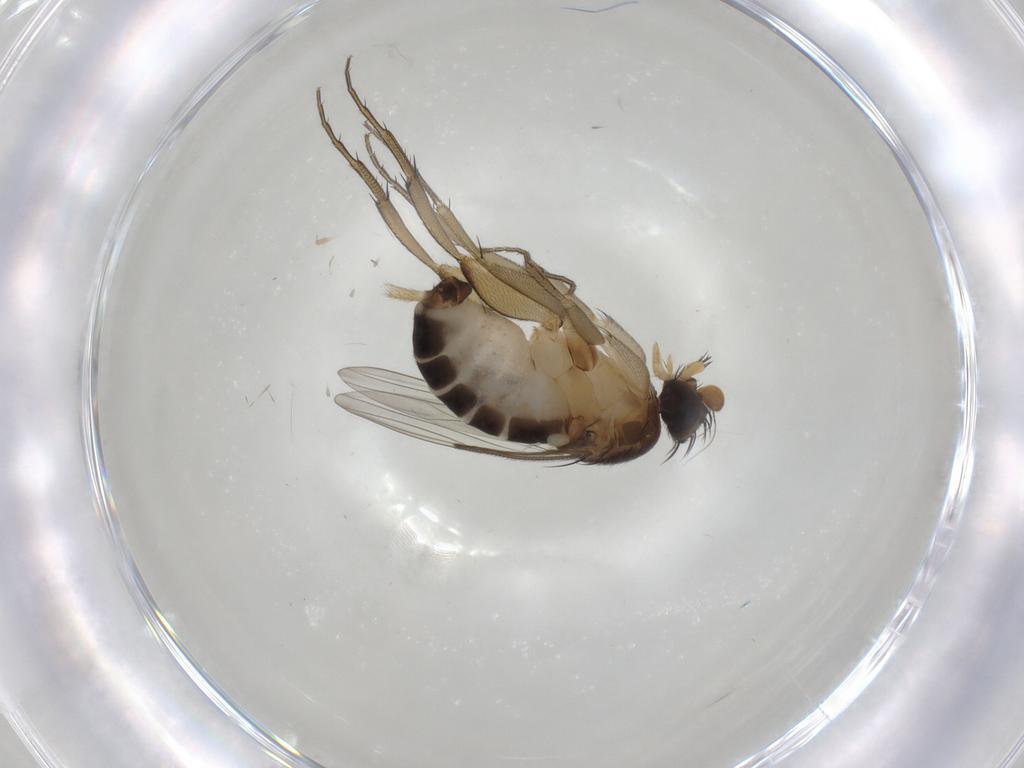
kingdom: Animalia
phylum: Arthropoda
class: Insecta
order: Diptera
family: Phoridae
